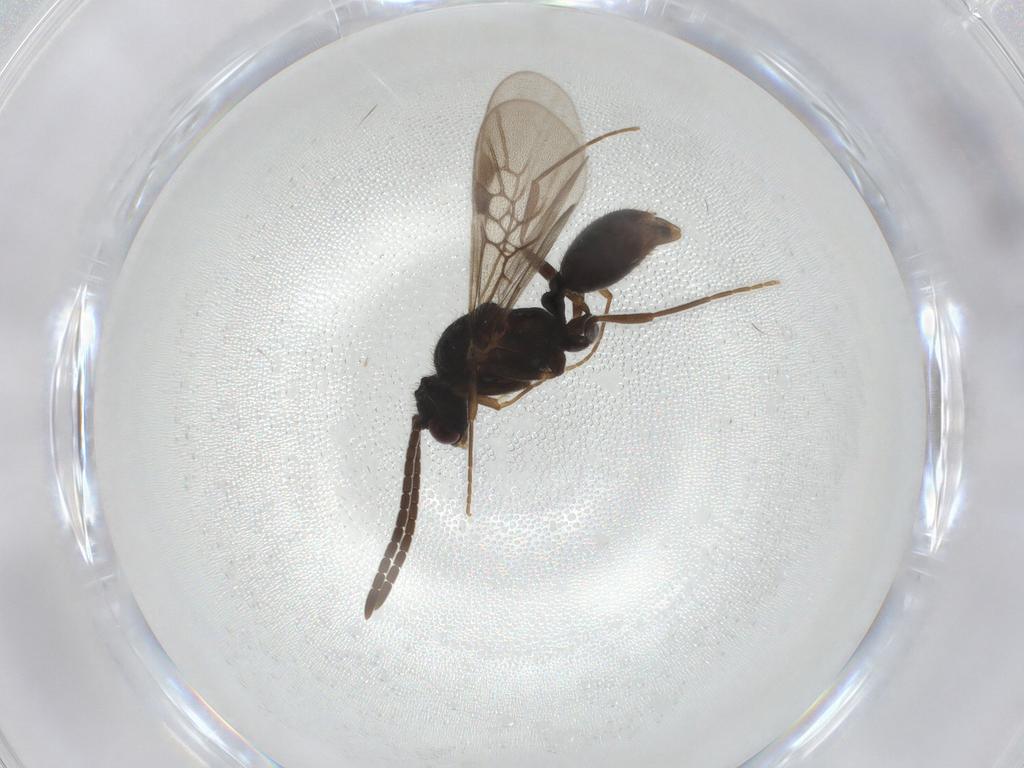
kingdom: Animalia
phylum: Arthropoda
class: Insecta
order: Hymenoptera
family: Formicidae
